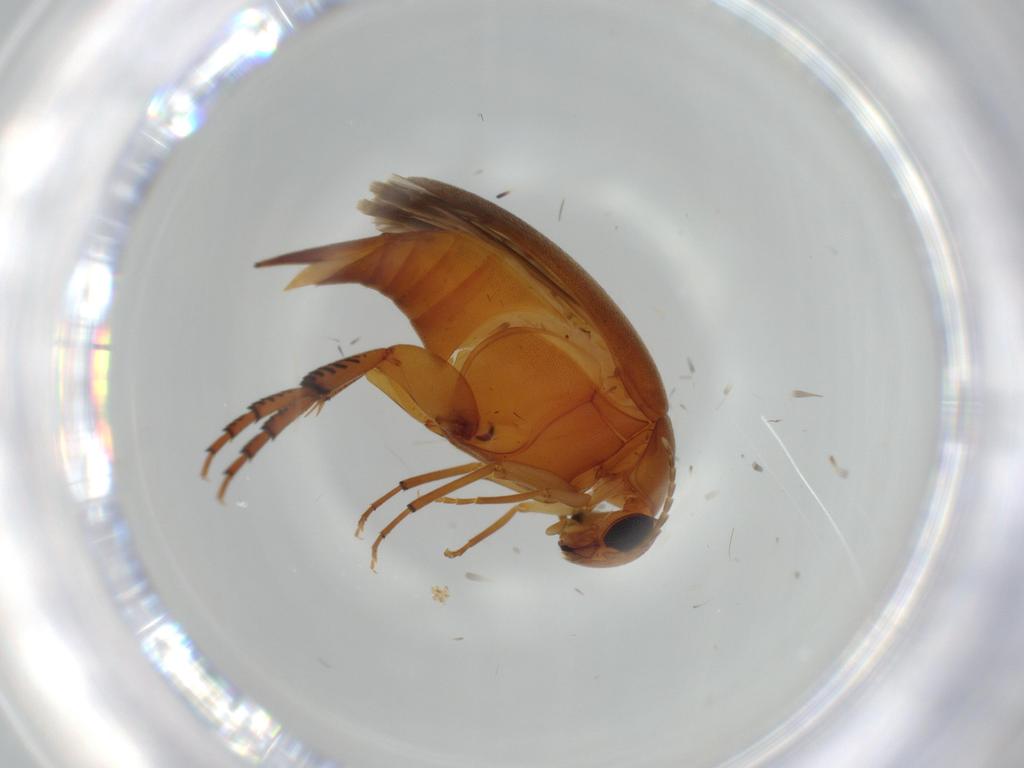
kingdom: Animalia
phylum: Arthropoda
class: Insecta
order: Coleoptera
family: Mordellidae
